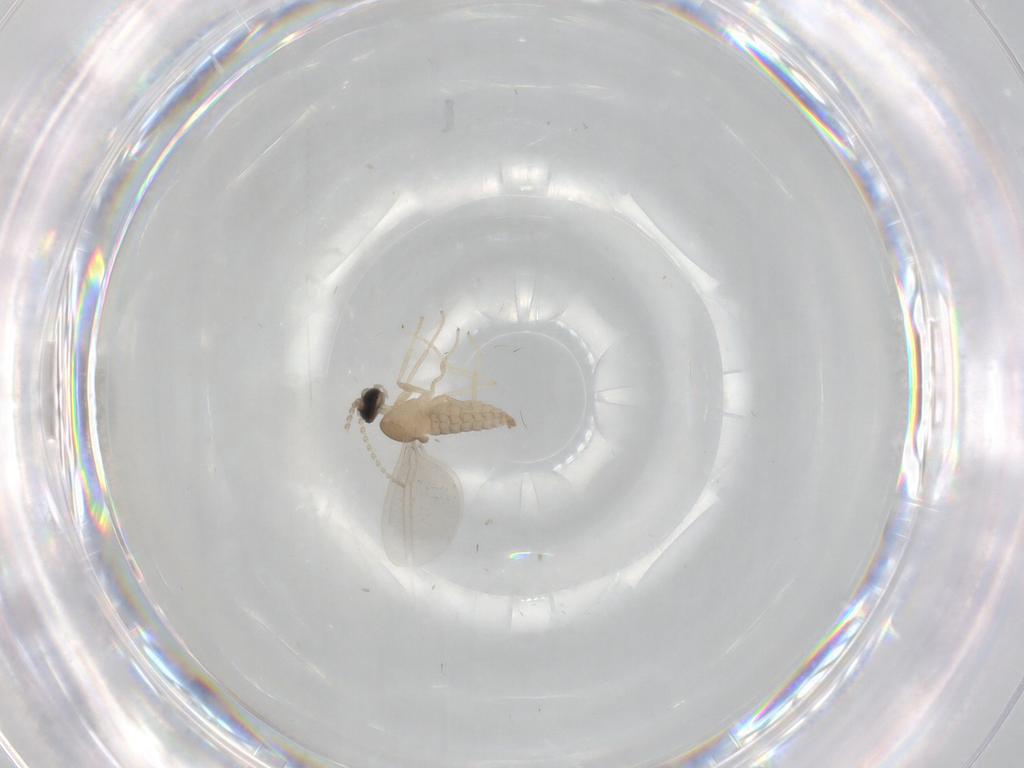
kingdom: Animalia
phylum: Arthropoda
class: Insecta
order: Diptera
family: Cecidomyiidae
